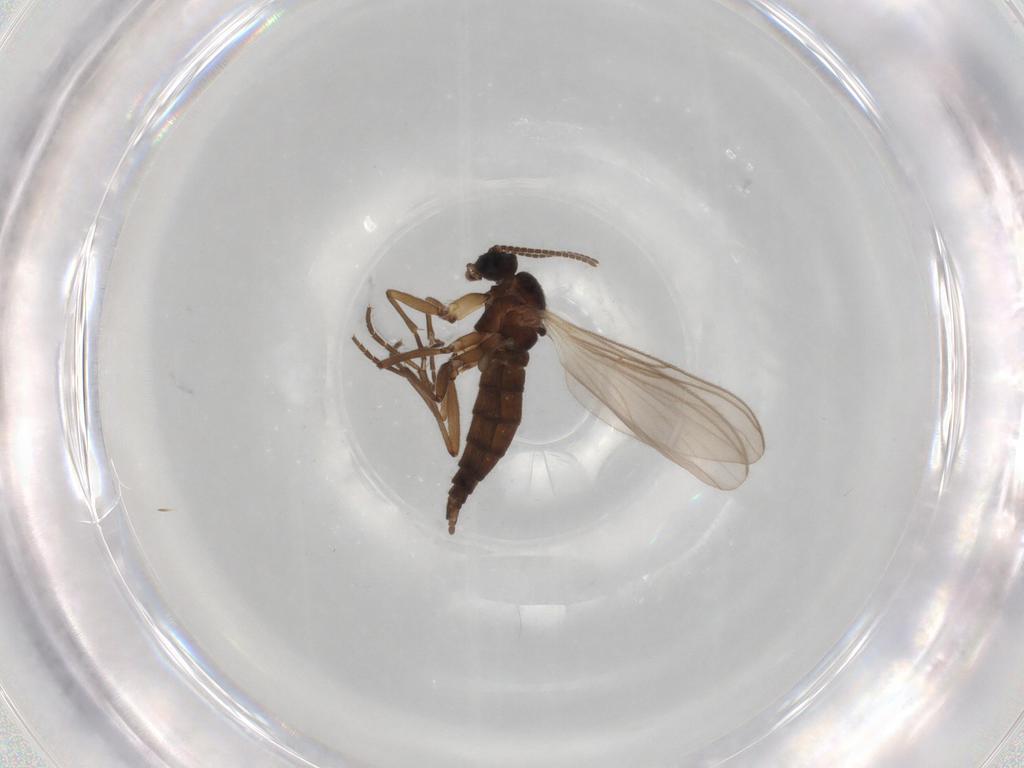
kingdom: Animalia
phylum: Arthropoda
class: Insecta
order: Diptera
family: Sciaridae
